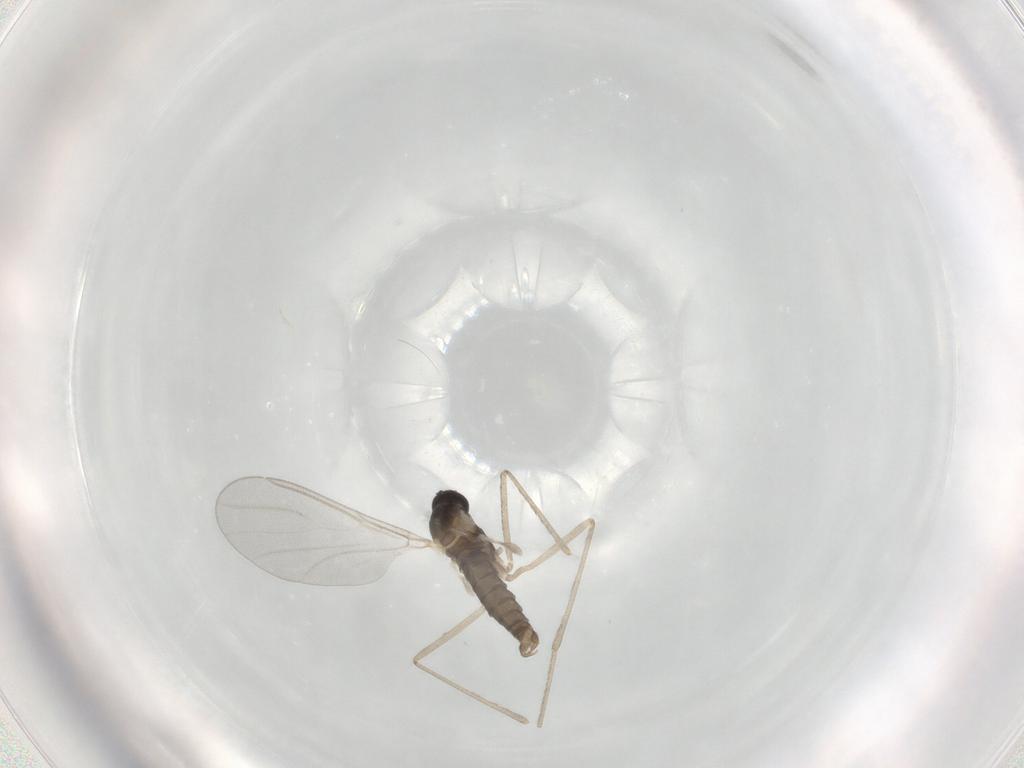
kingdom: Animalia
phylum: Arthropoda
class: Insecta
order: Diptera
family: Cecidomyiidae
